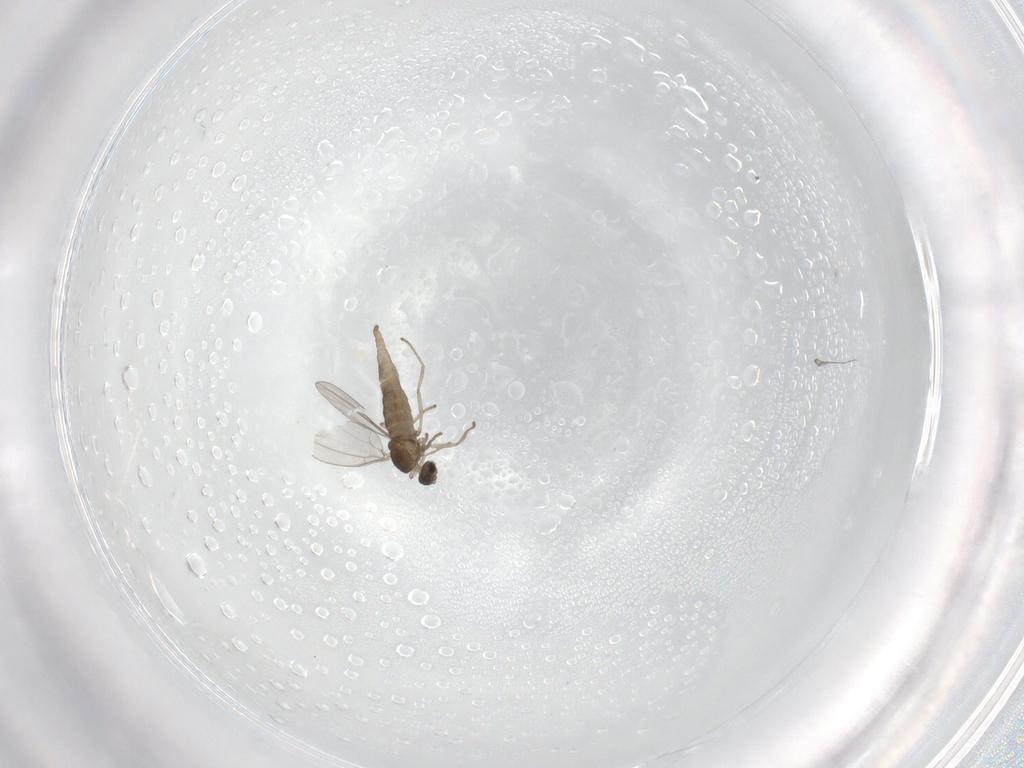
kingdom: Animalia
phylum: Arthropoda
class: Insecta
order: Diptera
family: Cecidomyiidae
